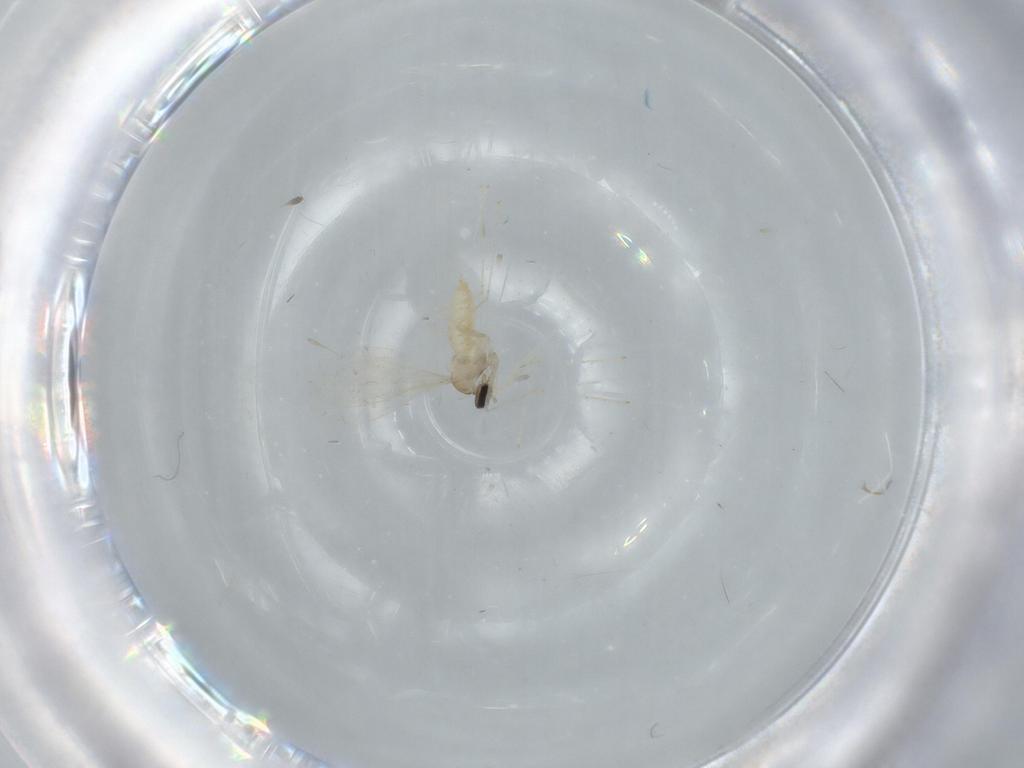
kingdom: Animalia
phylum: Arthropoda
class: Insecta
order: Diptera
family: Cecidomyiidae
